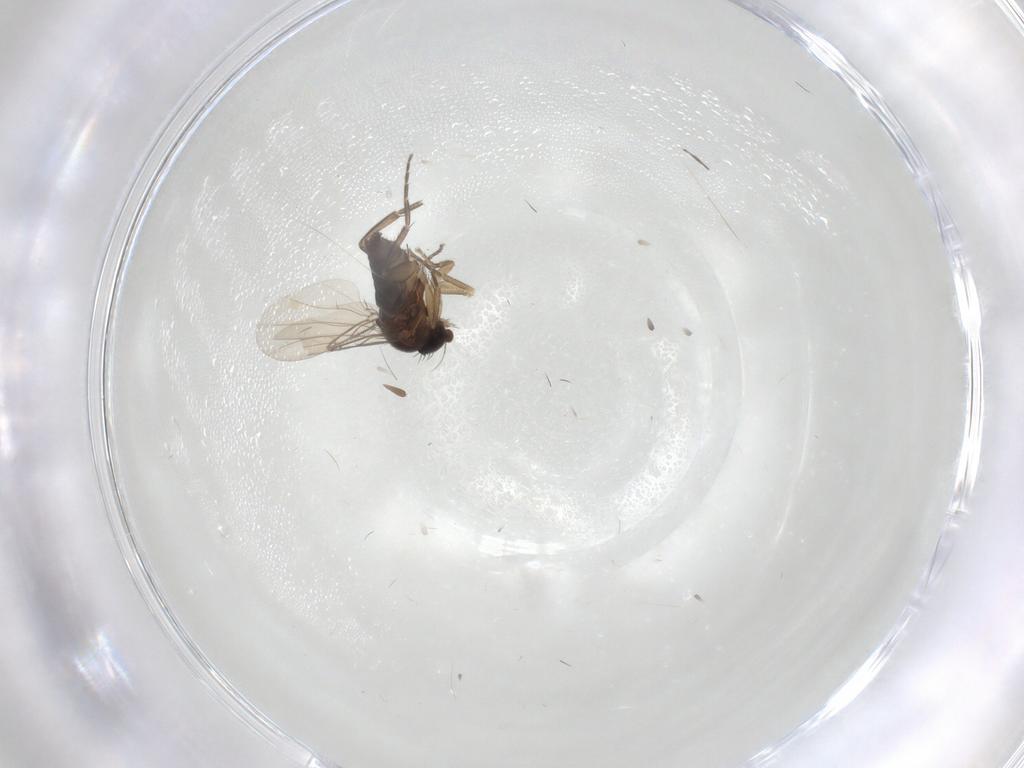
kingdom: Animalia
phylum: Arthropoda
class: Insecta
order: Diptera
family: Phoridae
